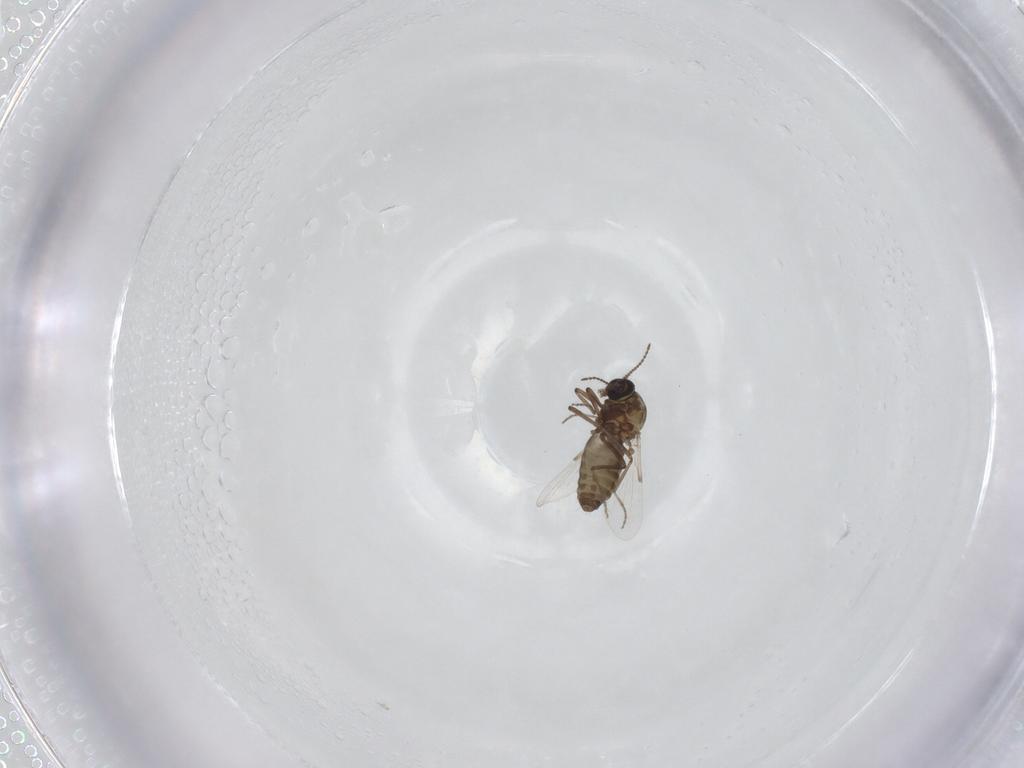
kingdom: Animalia
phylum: Arthropoda
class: Insecta
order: Diptera
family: Ceratopogonidae
